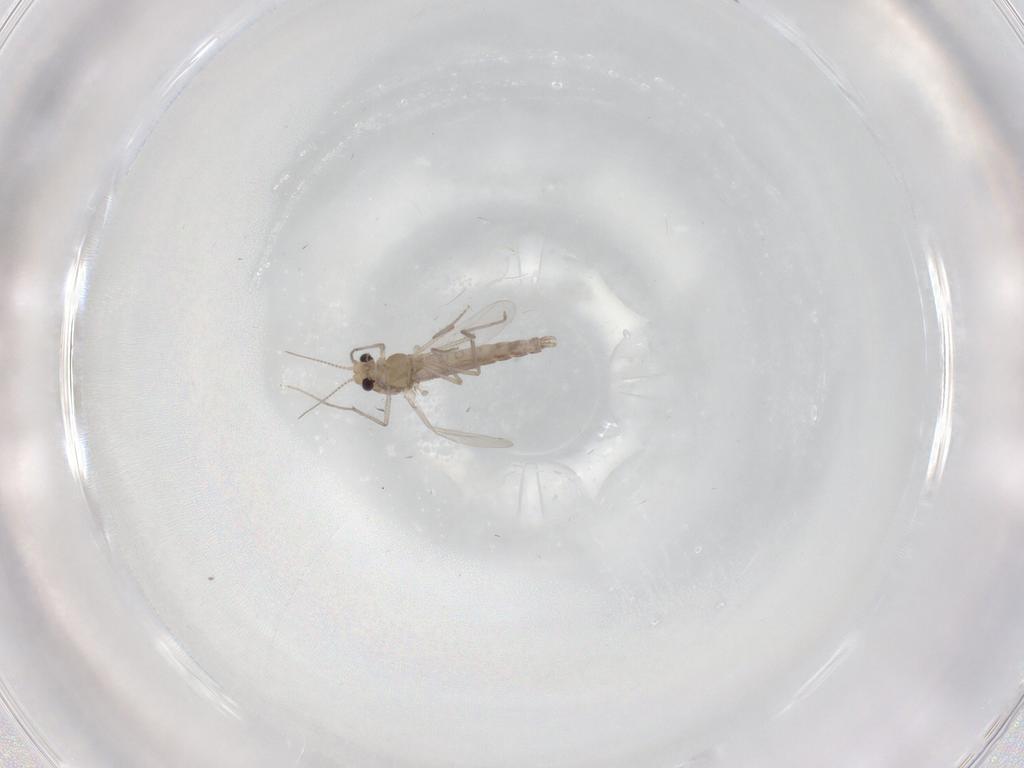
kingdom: Animalia
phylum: Arthropoda
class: Insecta
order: Diptera
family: Chironomidae
